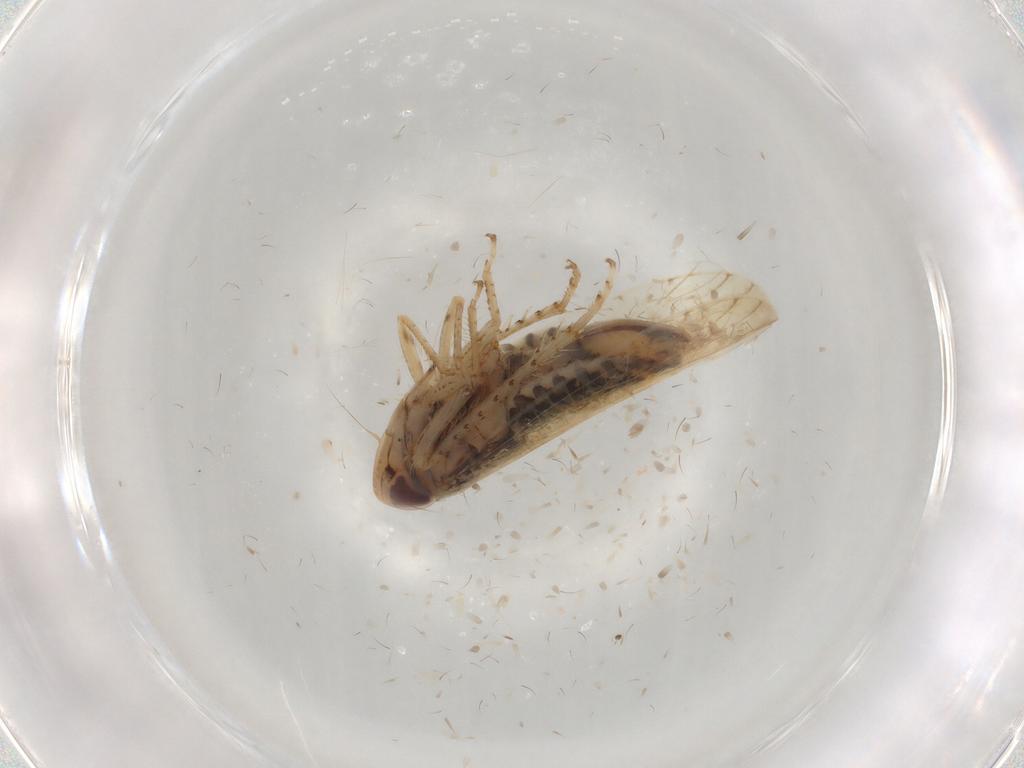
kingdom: Animalia
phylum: Arthropoda
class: Insecta
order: Hemiptera
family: Cicadellidae
